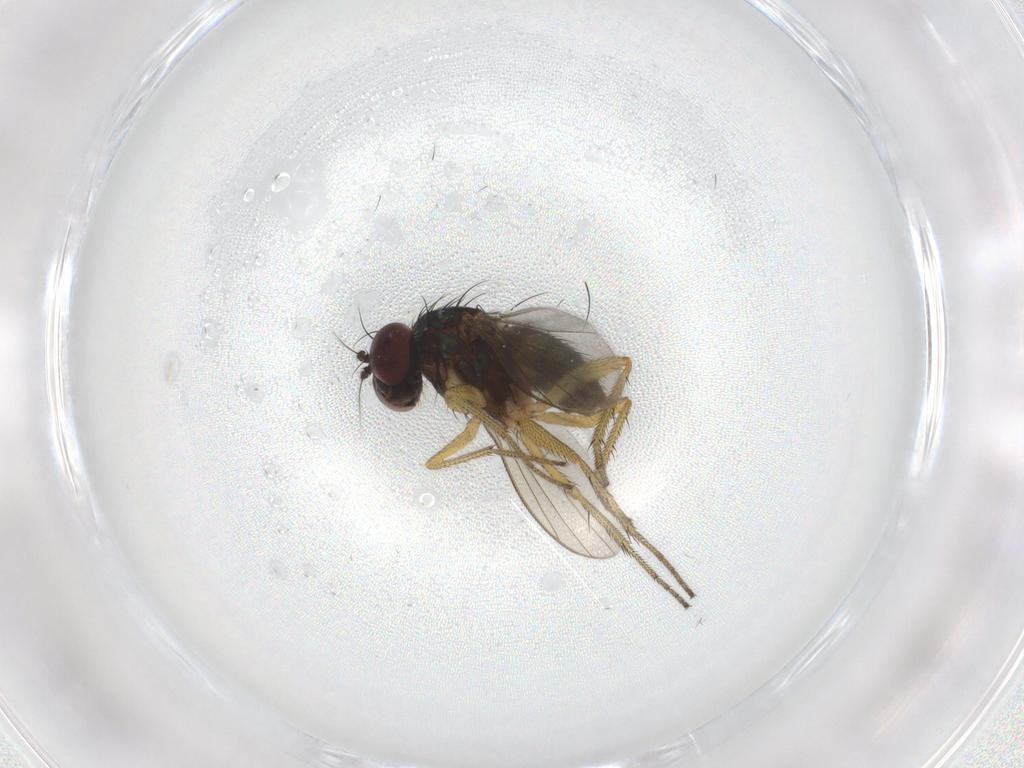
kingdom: Animalia
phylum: Arthropoda
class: Insecta
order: Diptera
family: Dolichopodidae
